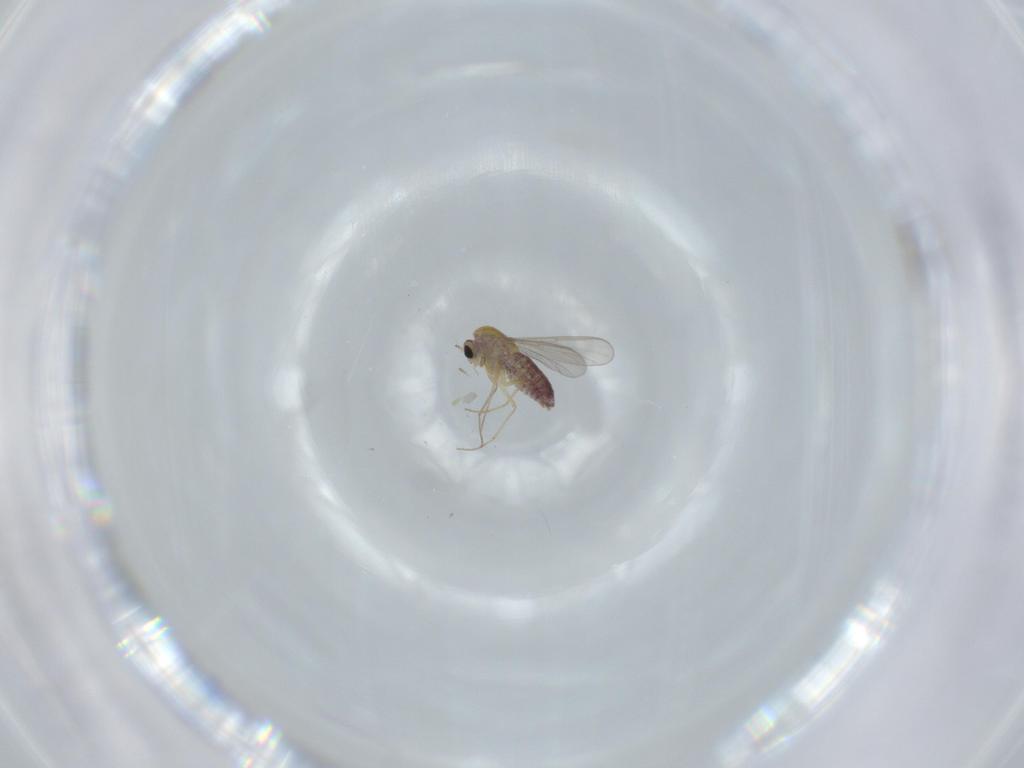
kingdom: Animalia
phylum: Arthropoda
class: Insecta
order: Diptera
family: Chironomidae
